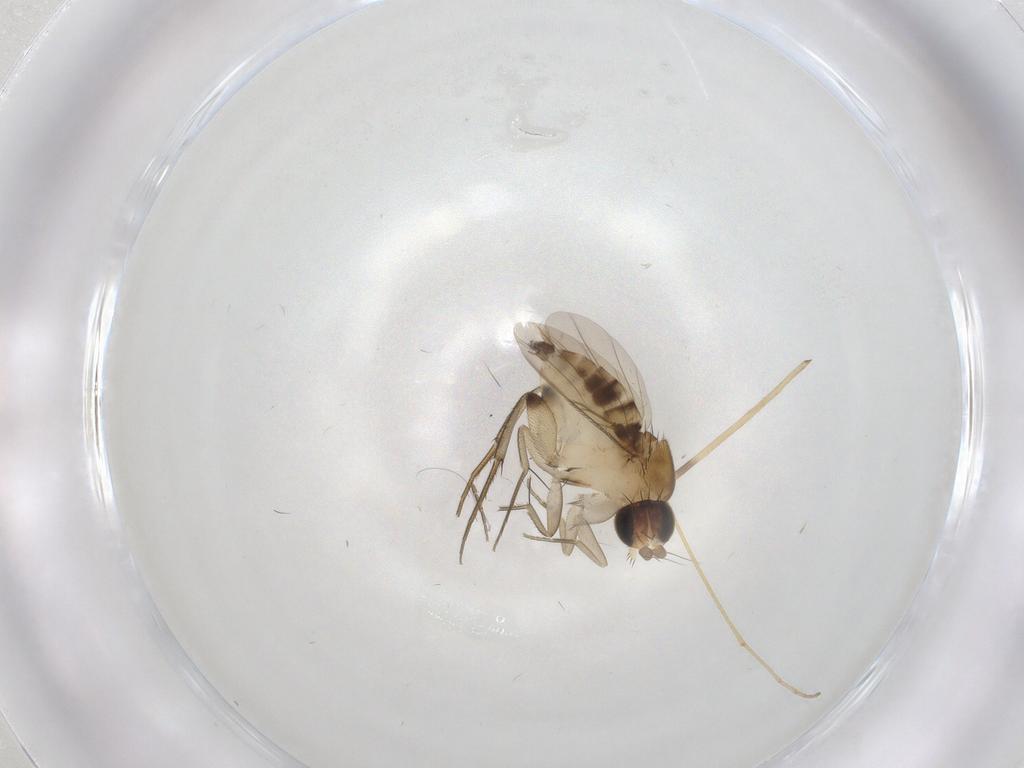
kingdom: Animalia
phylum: Arthropoda
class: Insecta
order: Diptera
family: Phoridae
